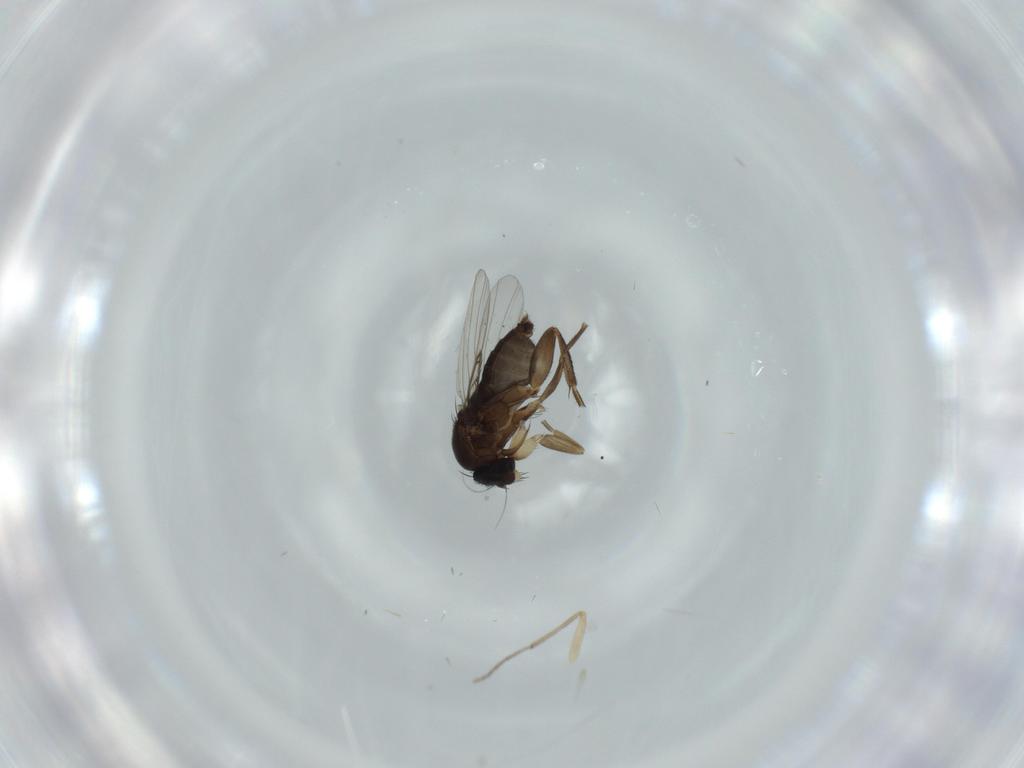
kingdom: Animalia
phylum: Arthropoda
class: Insecta
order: Diptera
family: Phoridae
